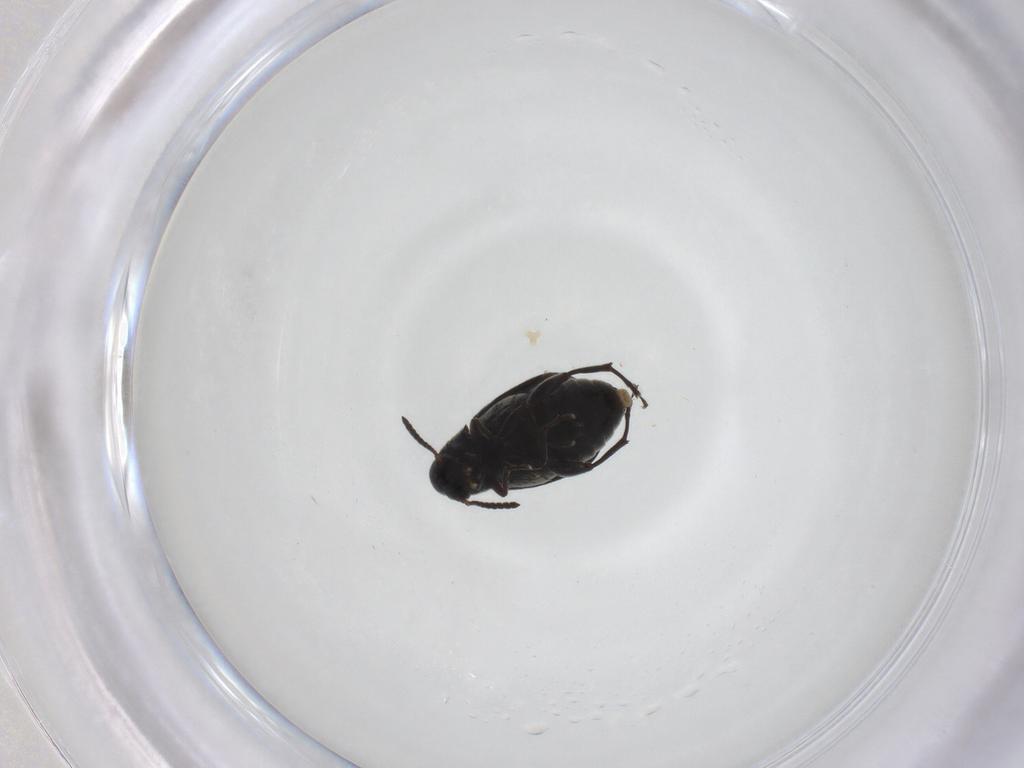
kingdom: Animalia
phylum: Arthropoda
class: Insecta
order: Coleoptera
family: Chrysomelidae
